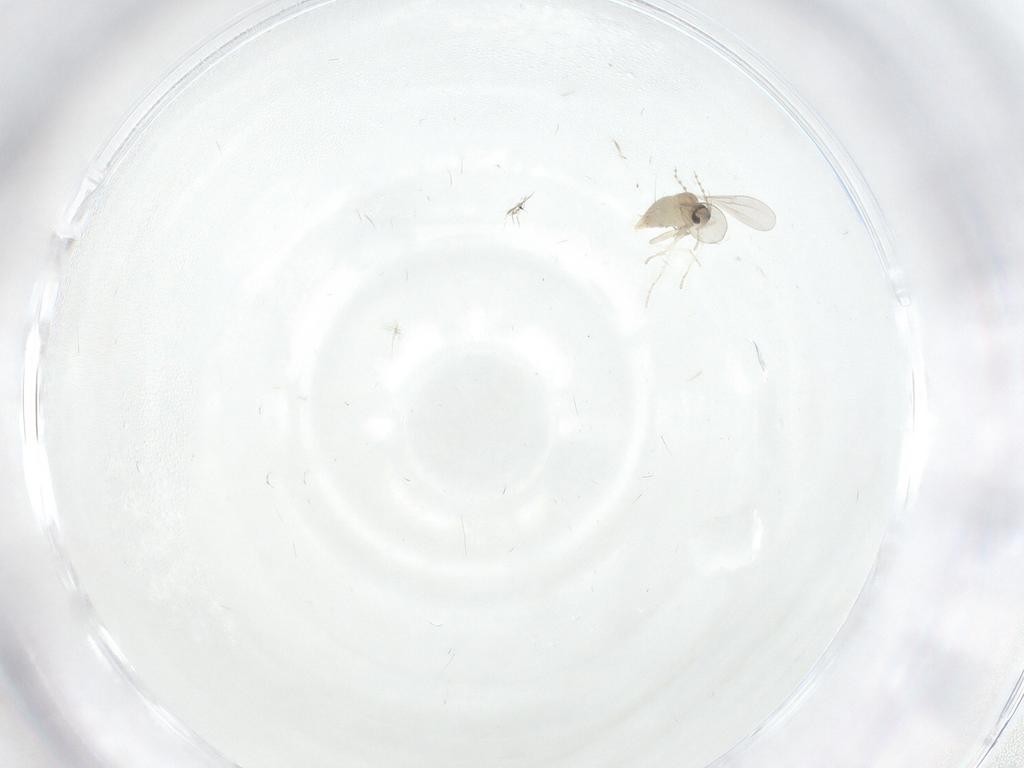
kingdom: Animalia
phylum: Arthropoda
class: Insecta
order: Diptera
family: Cecidomyiidae
